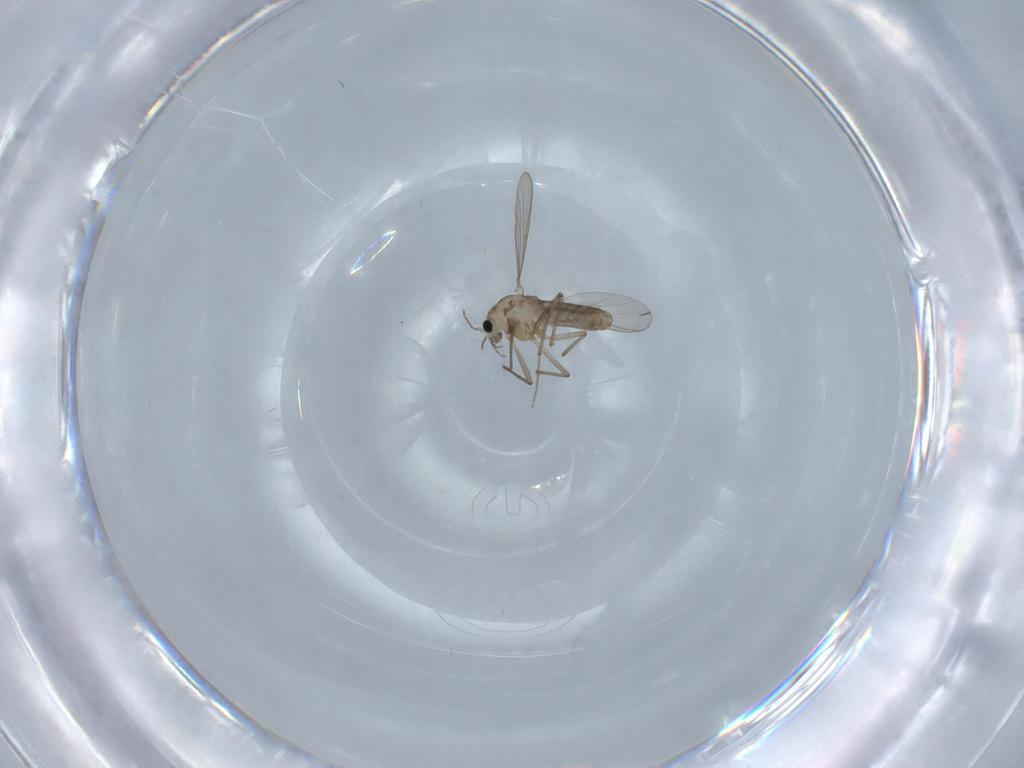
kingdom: Animalia
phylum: Arthropoda
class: Insecta
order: Diptera
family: Chironomidae
